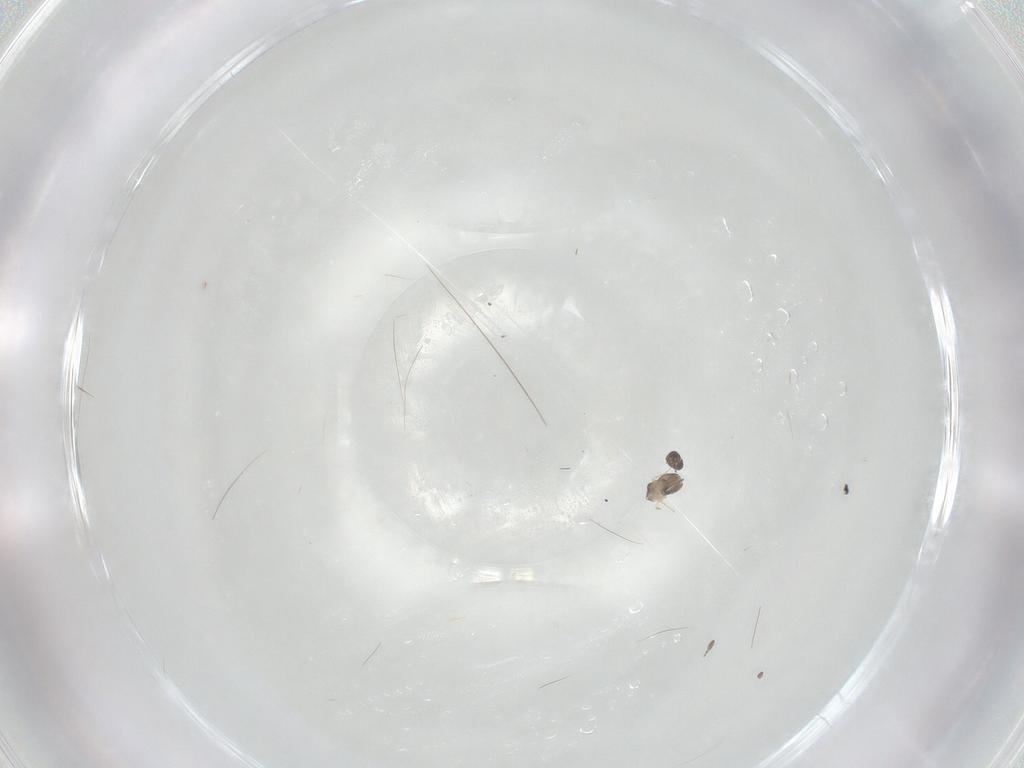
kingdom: Animalia
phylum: Arthropoda
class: Insecta
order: Hymenoptera
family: Mymaridae
